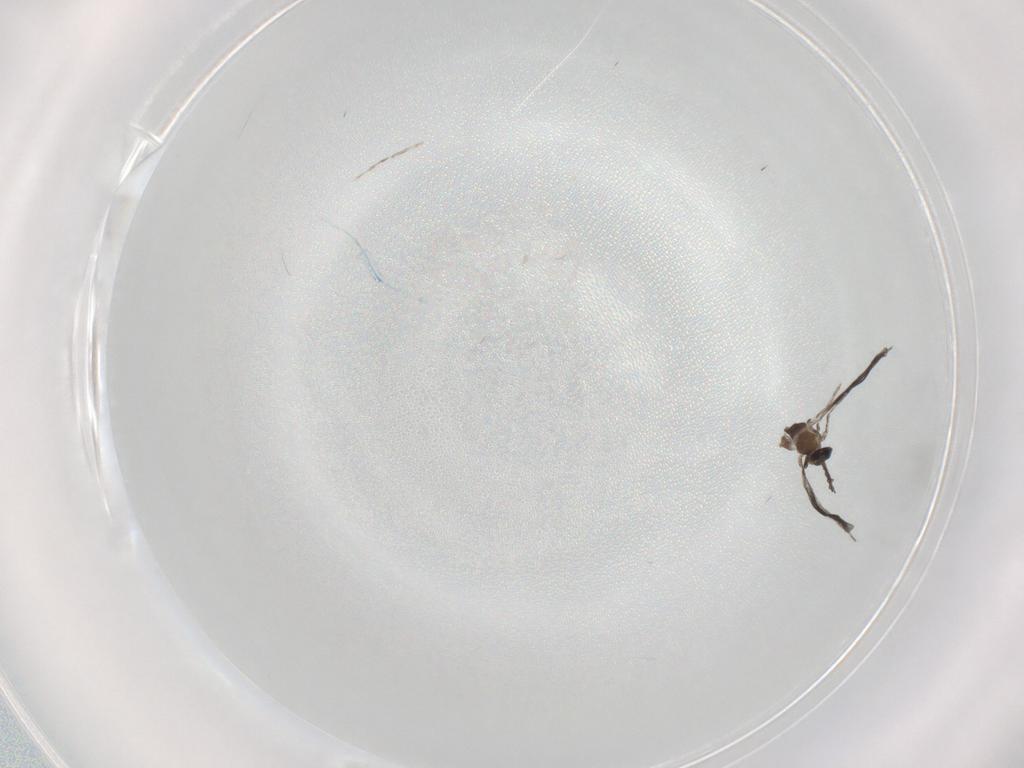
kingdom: Animalia
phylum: Arthropoda
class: Insecta
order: Diptera
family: Cecidomyiidae
